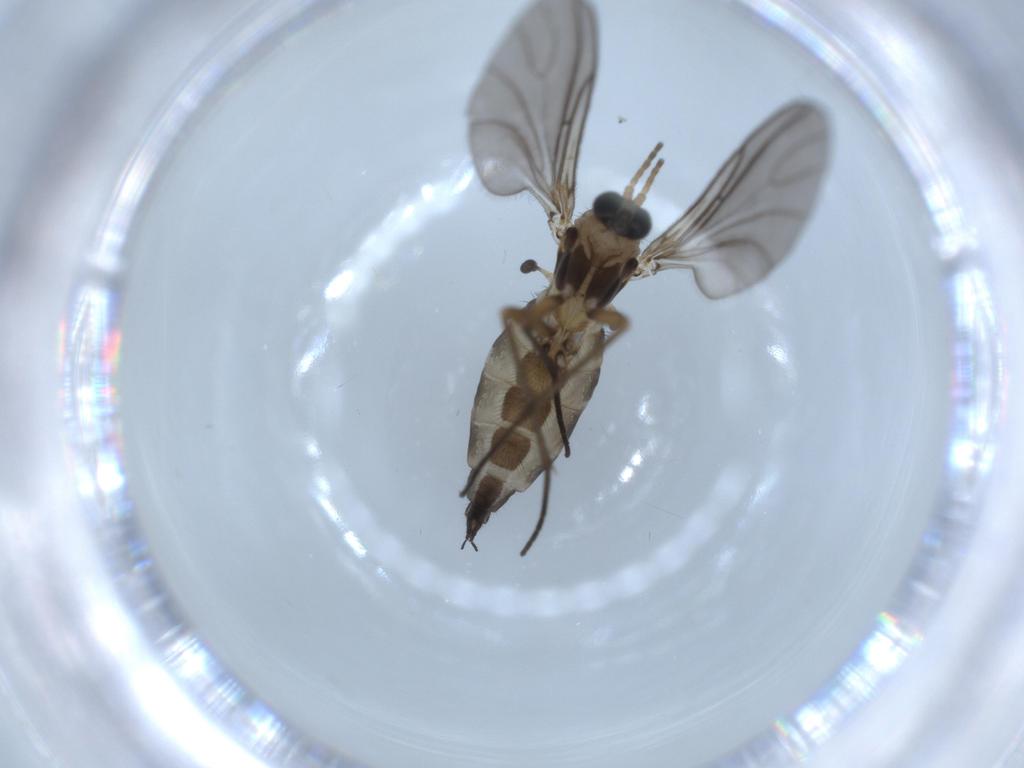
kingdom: Animalia
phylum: Arthropoda
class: Insecta
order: Diptera
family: Sciaridae
